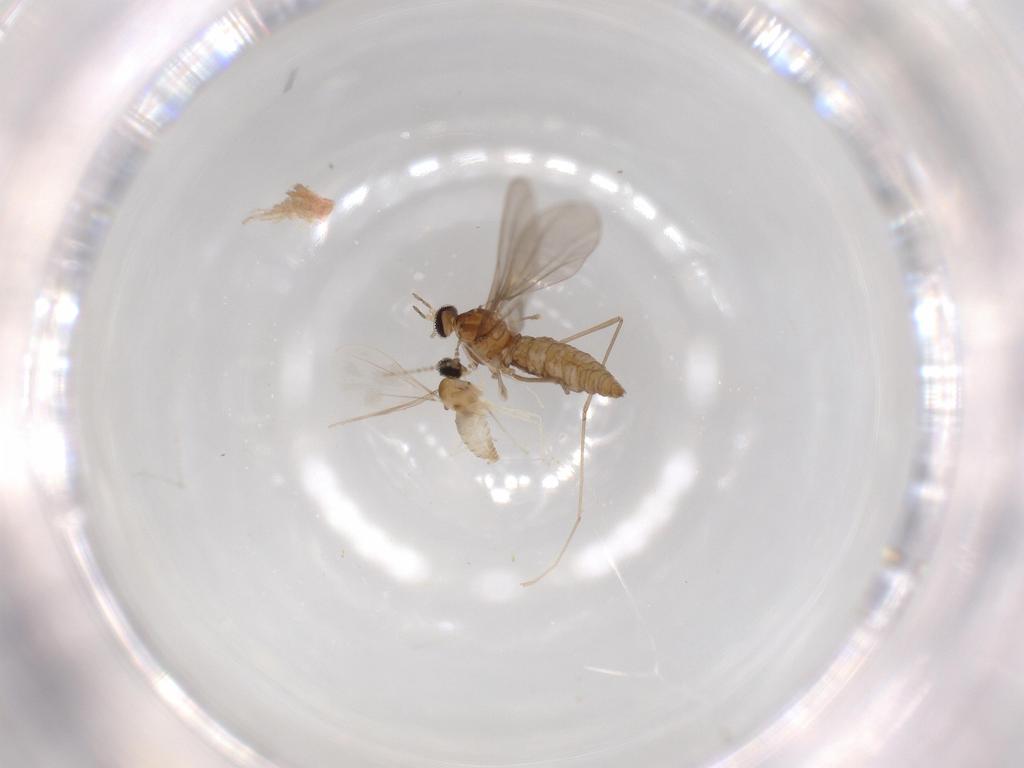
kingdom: Animalia
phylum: Arthropoda
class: Insecta
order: Diptera
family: Cecidomyiidae
